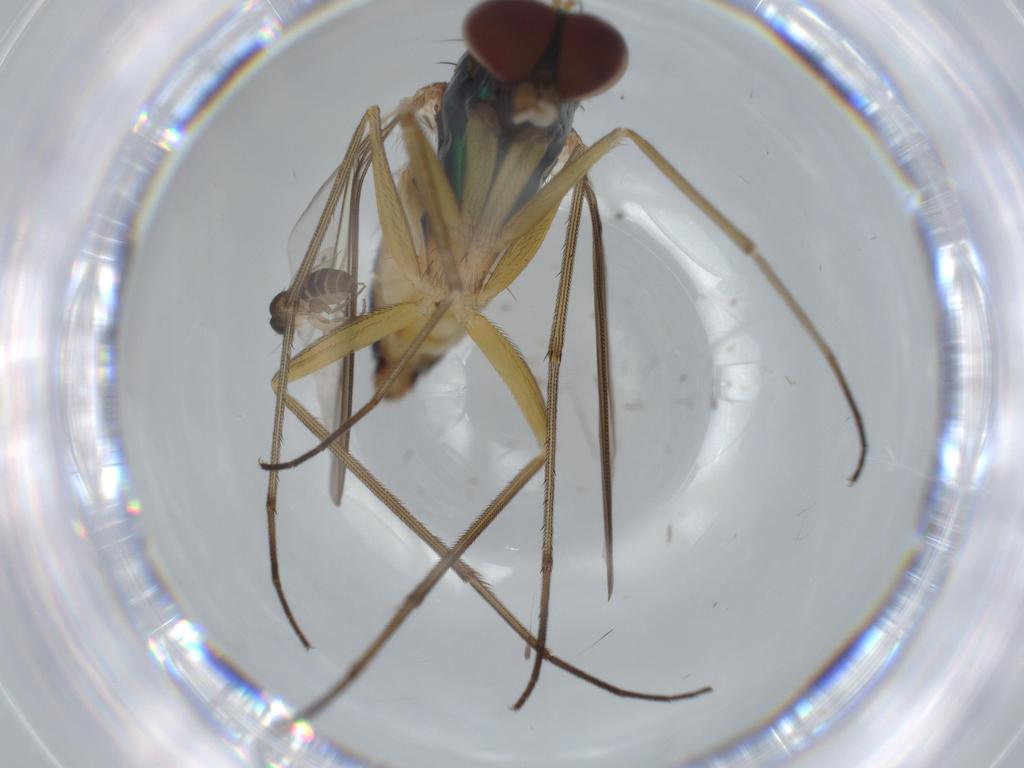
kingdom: Animalia
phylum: Arthropoda
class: Insecta
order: Diptera
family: Phoridae
